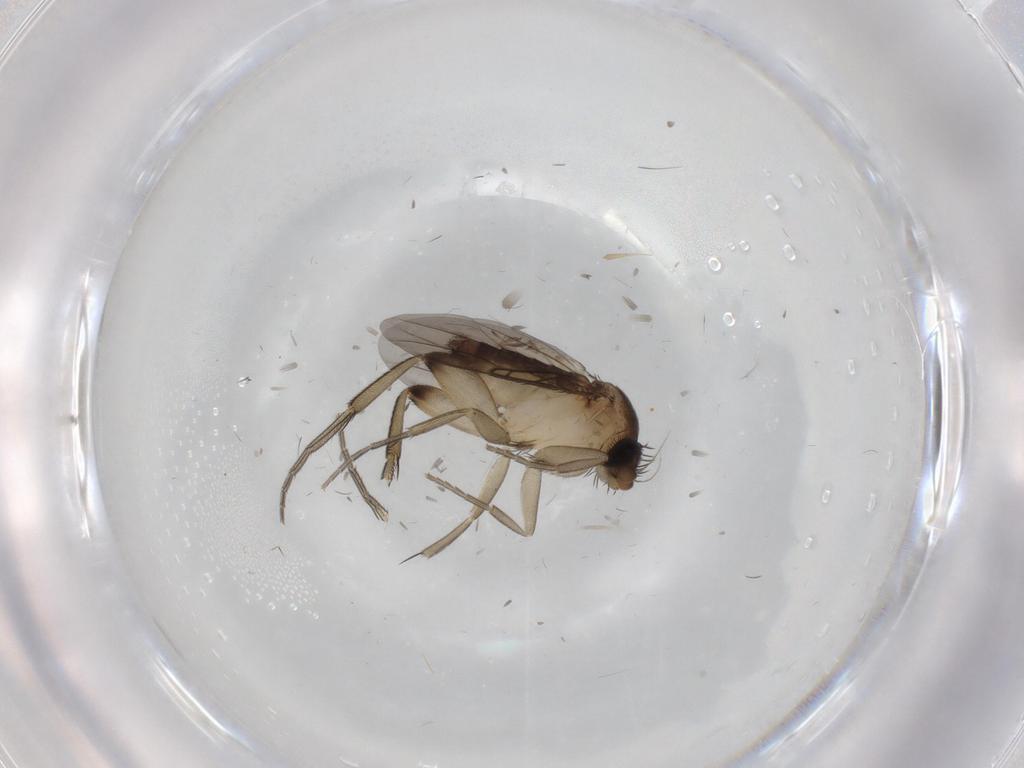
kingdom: Animalia
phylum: Arthropoda
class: Insecta
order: Diptera
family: Phoridae
